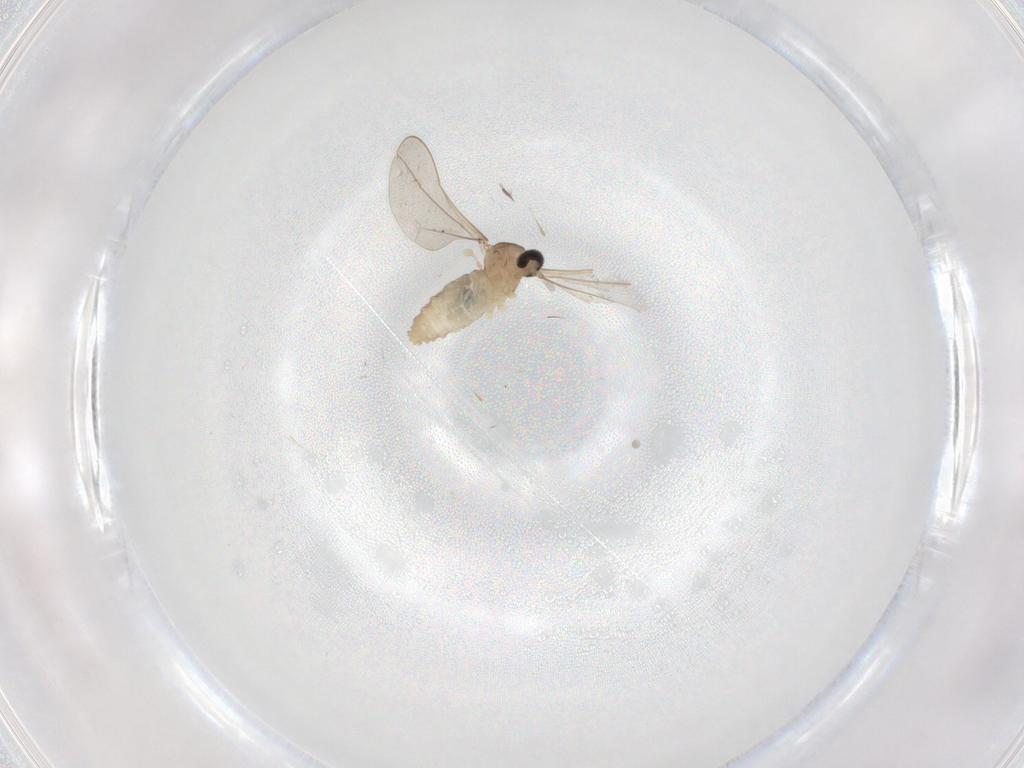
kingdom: Animalia
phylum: Arthropoda
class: Insecta
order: Diptera
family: Cecidomyiidae
